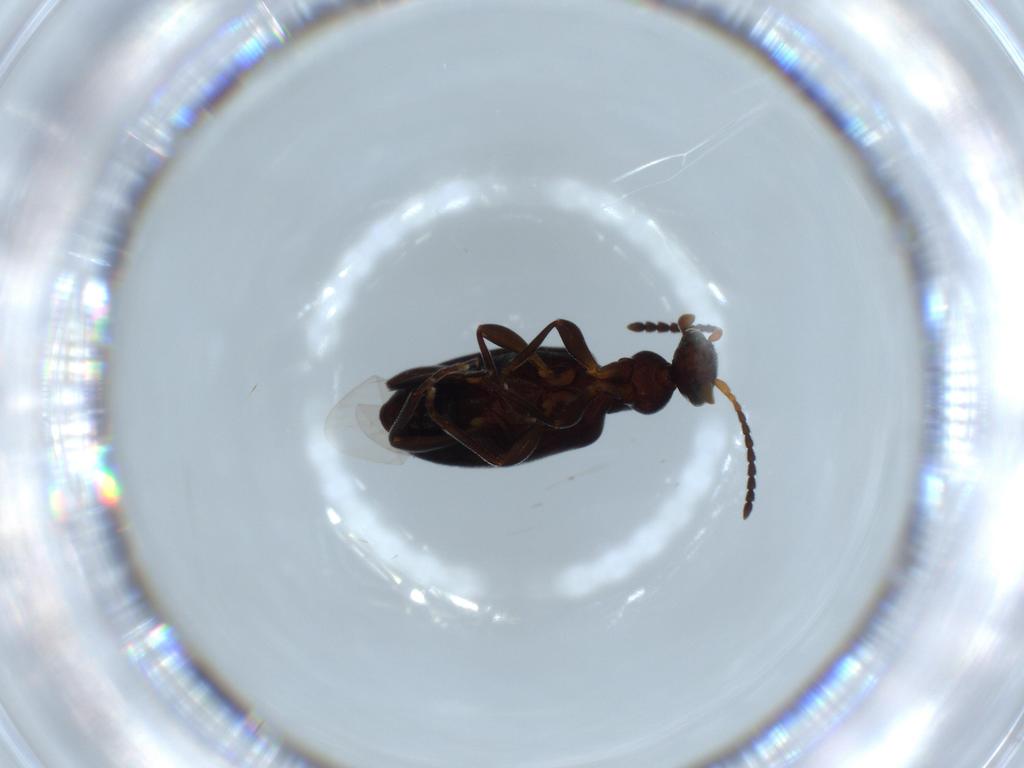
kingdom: Animalia
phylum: Arthropoda
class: Insecta
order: Coleoptera
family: Anthicidae
